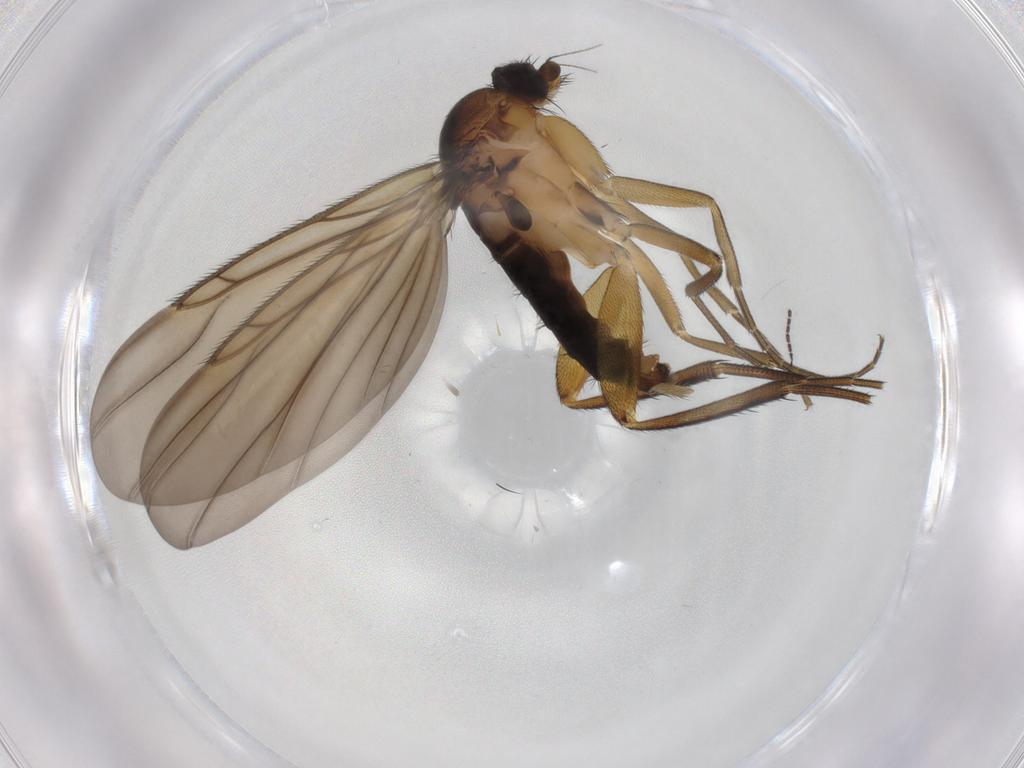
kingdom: Animalia
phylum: Arthropoda
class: Insecta
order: Diptera
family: Phoridae
